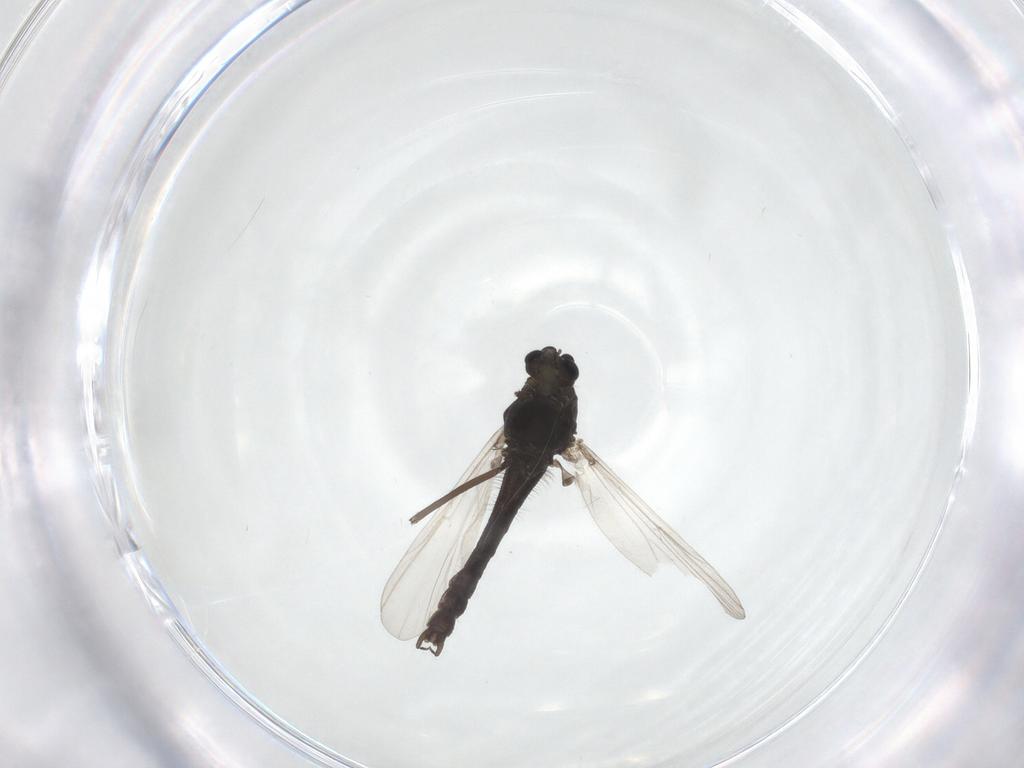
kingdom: Animalia
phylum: Arthropoda
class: Insecta
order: Diptera
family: Chironomidae
